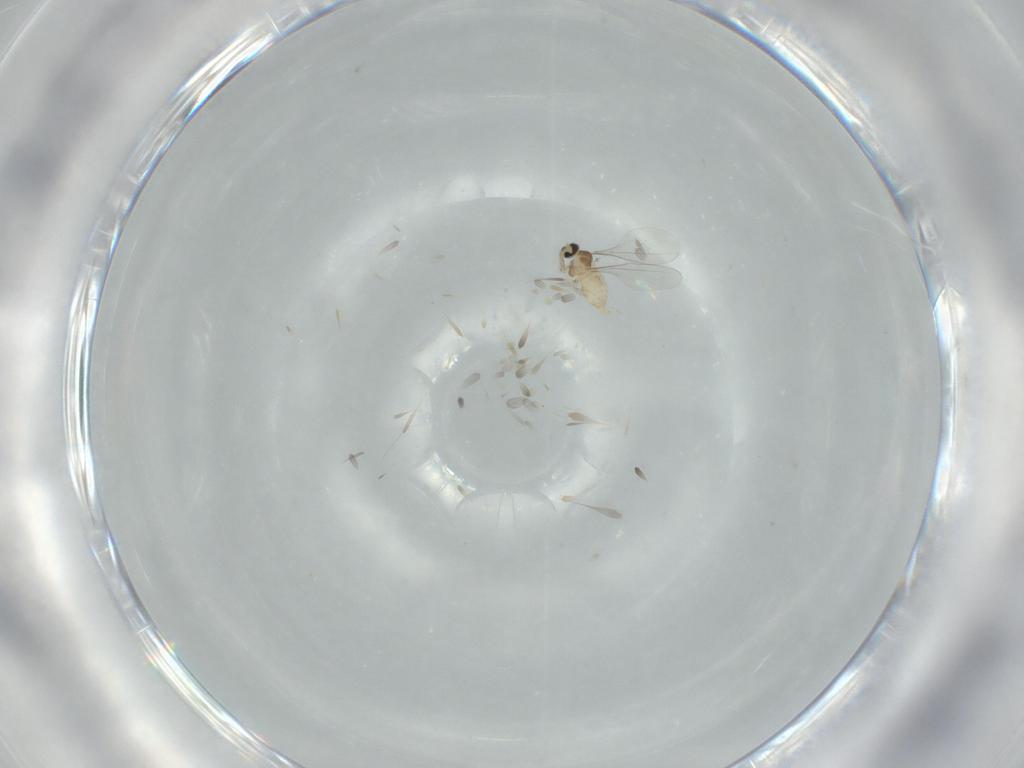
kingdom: Animalia
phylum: Arthropoda
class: Insecta
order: Diptera
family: Cecidomyiidae
